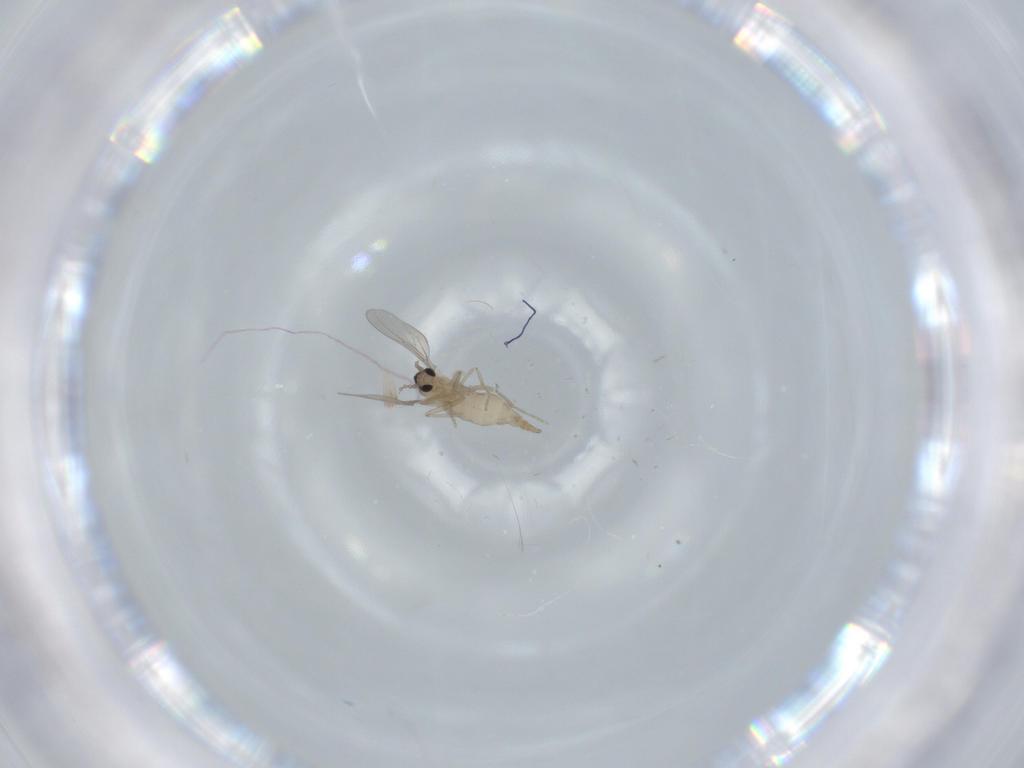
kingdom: Animalia
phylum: Arthropoda
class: Insecta
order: Diptera
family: Cecidomyiidae
